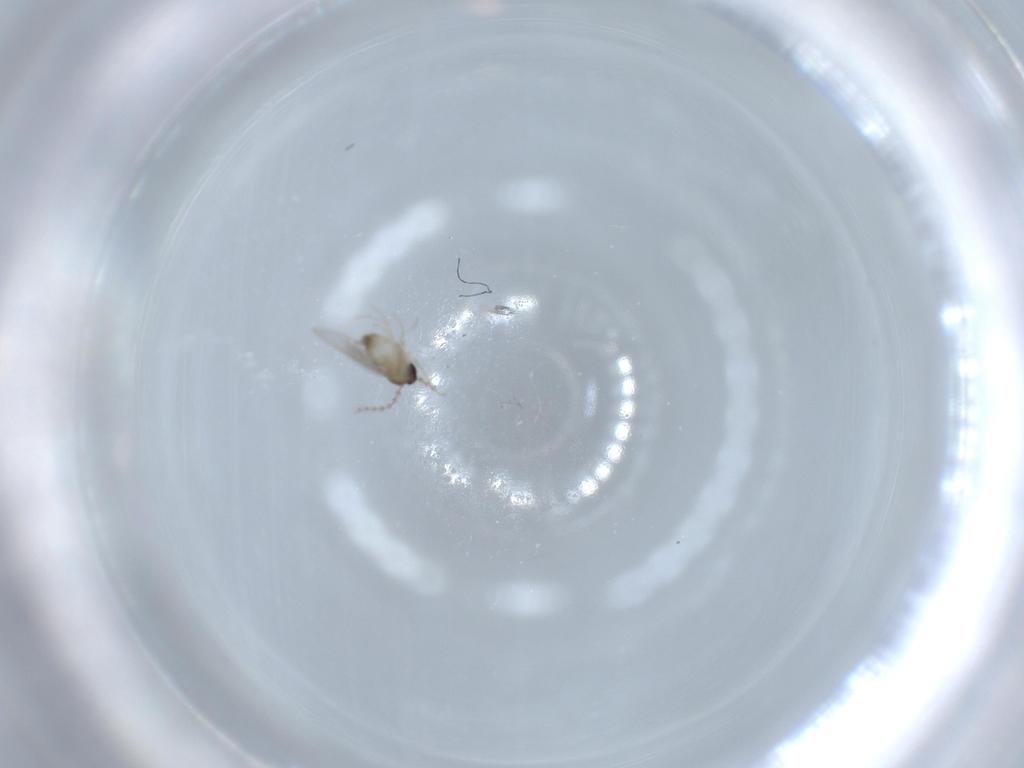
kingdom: Animalia
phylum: Arthropoda
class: Insecta
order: Diptera
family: Cecidomyiidae
